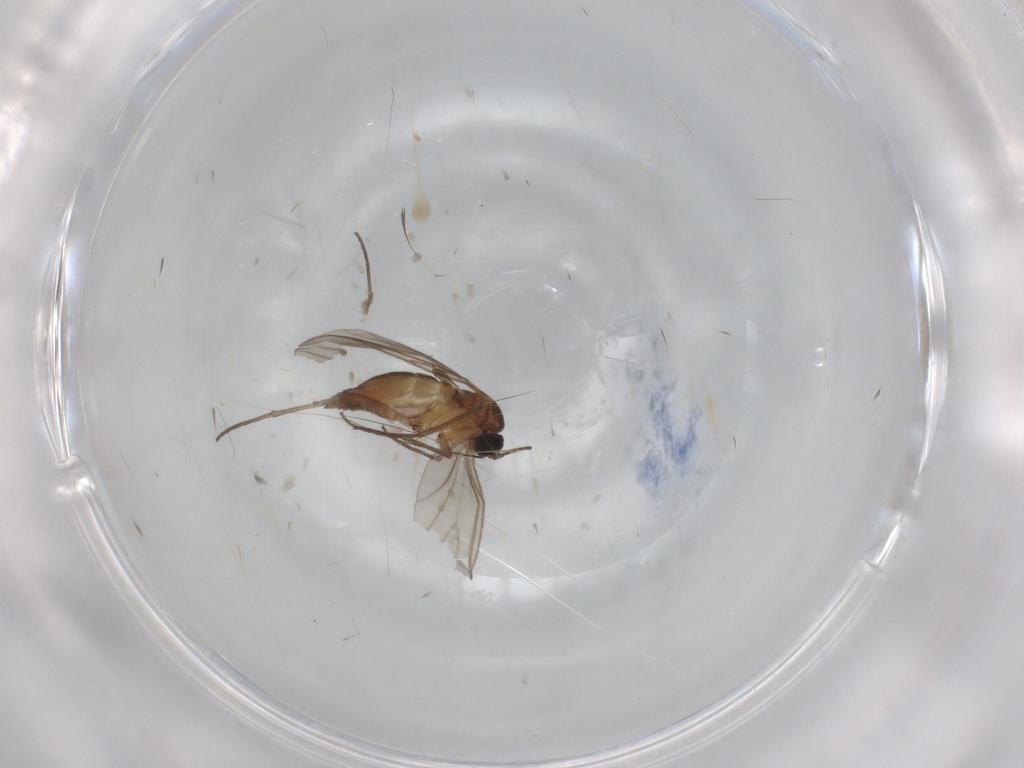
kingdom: Animalia
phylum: Arthropoda
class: Insecta
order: Diptera
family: Sciaridae
